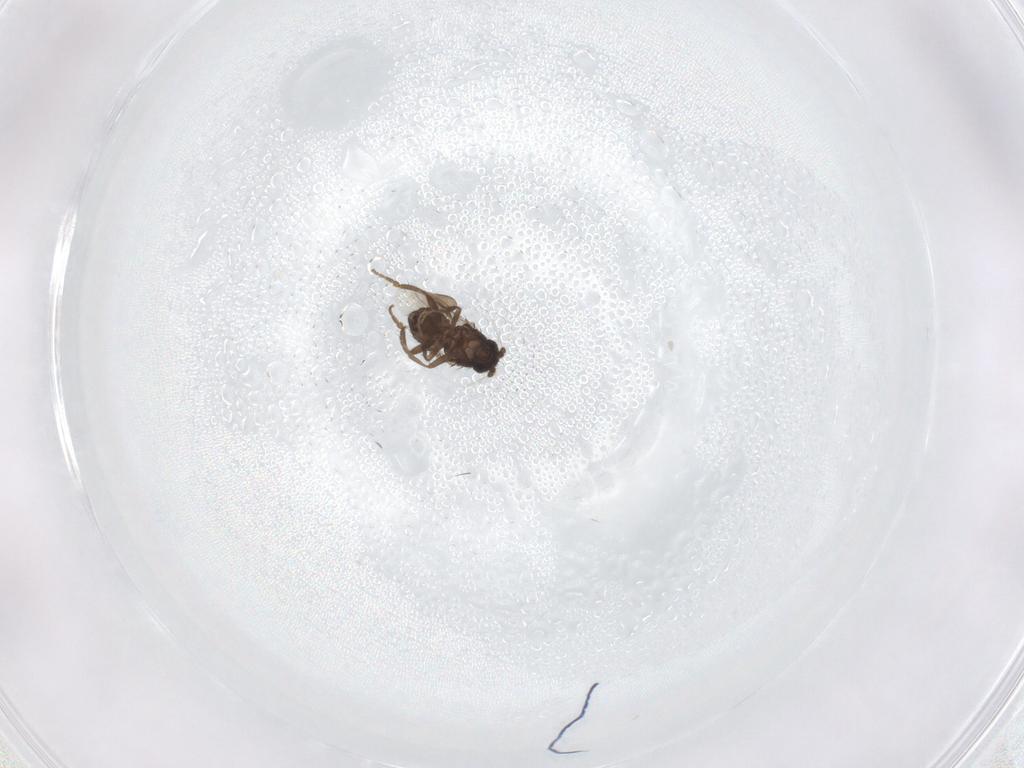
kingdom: Animalia
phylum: Arthropoda
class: Insecta
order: Diptera
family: Sciaridae
